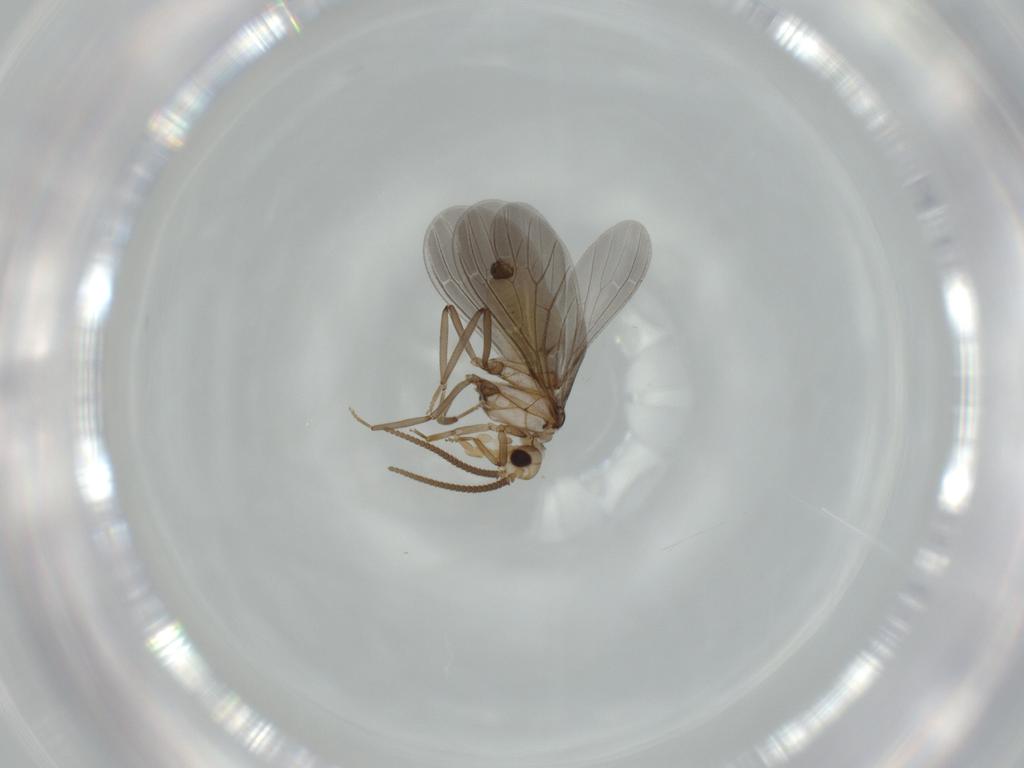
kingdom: Animalia
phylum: Arthropoda
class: Insecta
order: Neuroptera
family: Coniopterygidae
